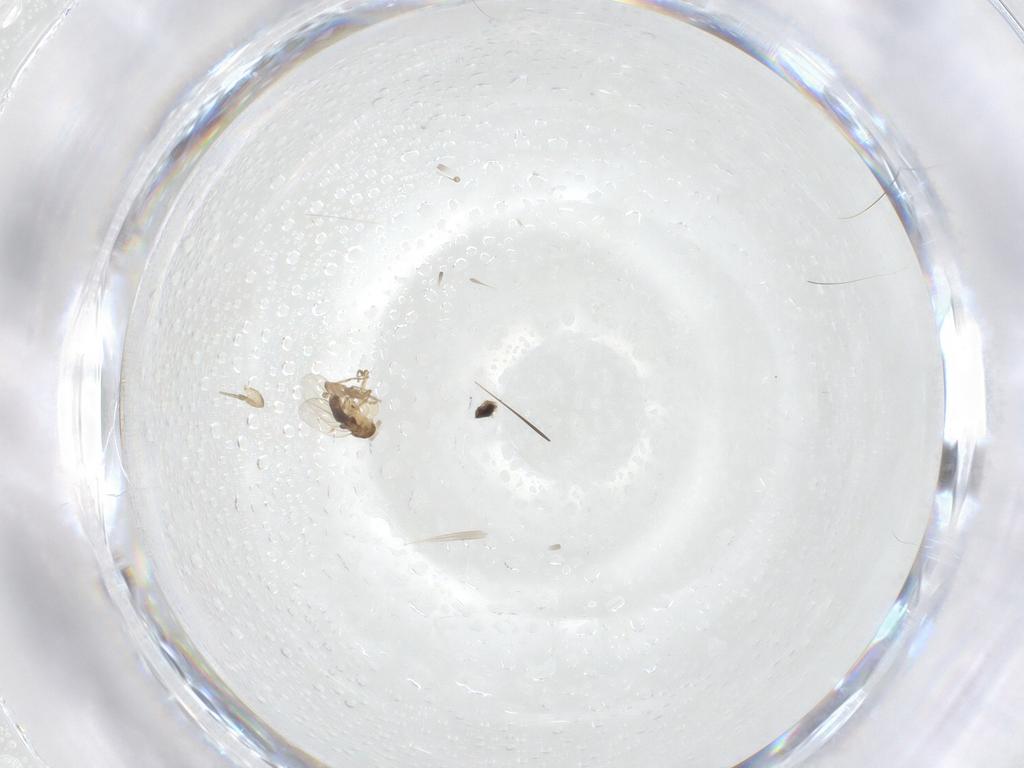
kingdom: Animalia
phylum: Arthropoda
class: Insecta
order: Diptera
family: Phoridae
